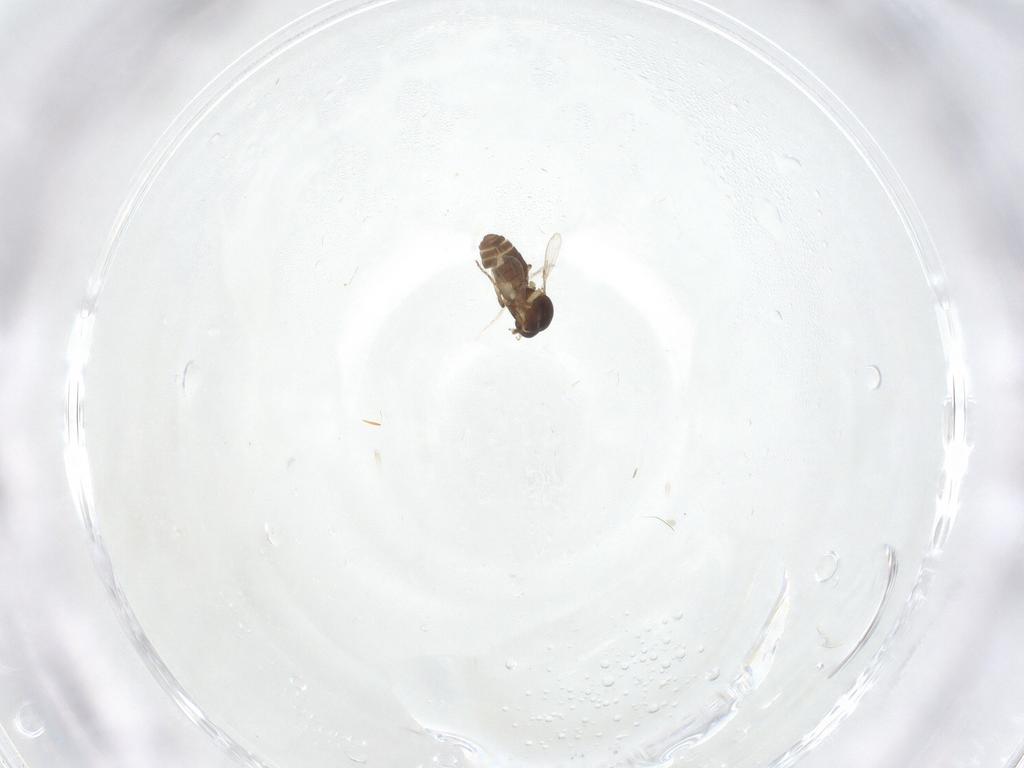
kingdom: Animalia
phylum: Arthropoda
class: Insecta
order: Diptera
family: Ceratopogonidae
